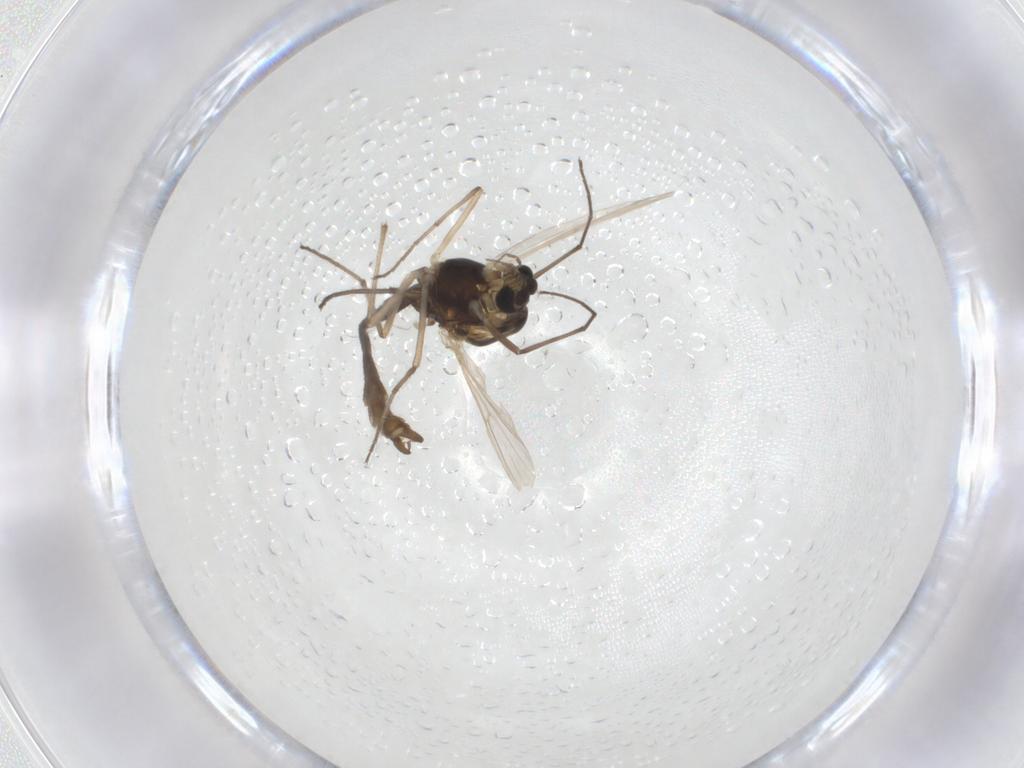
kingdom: Animalia
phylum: Arthropoda
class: Insecta
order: Diptera
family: Chironomidae
